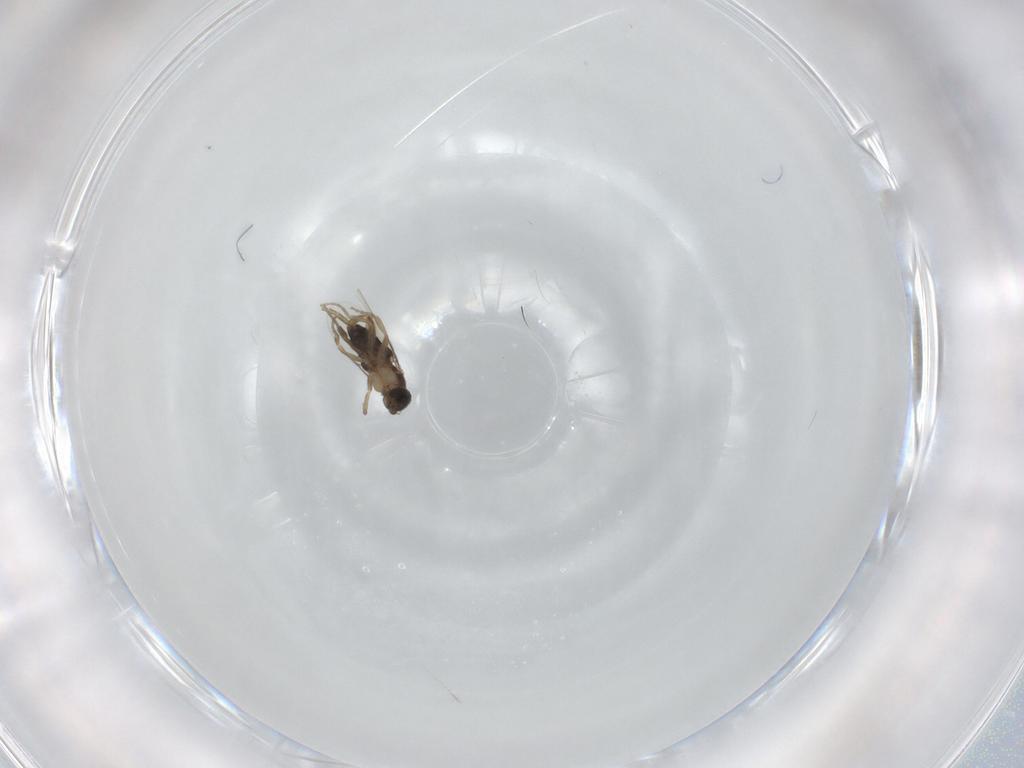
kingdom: Animalia
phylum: Arthropoda
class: Insecta
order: Diptera
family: Phoridae
